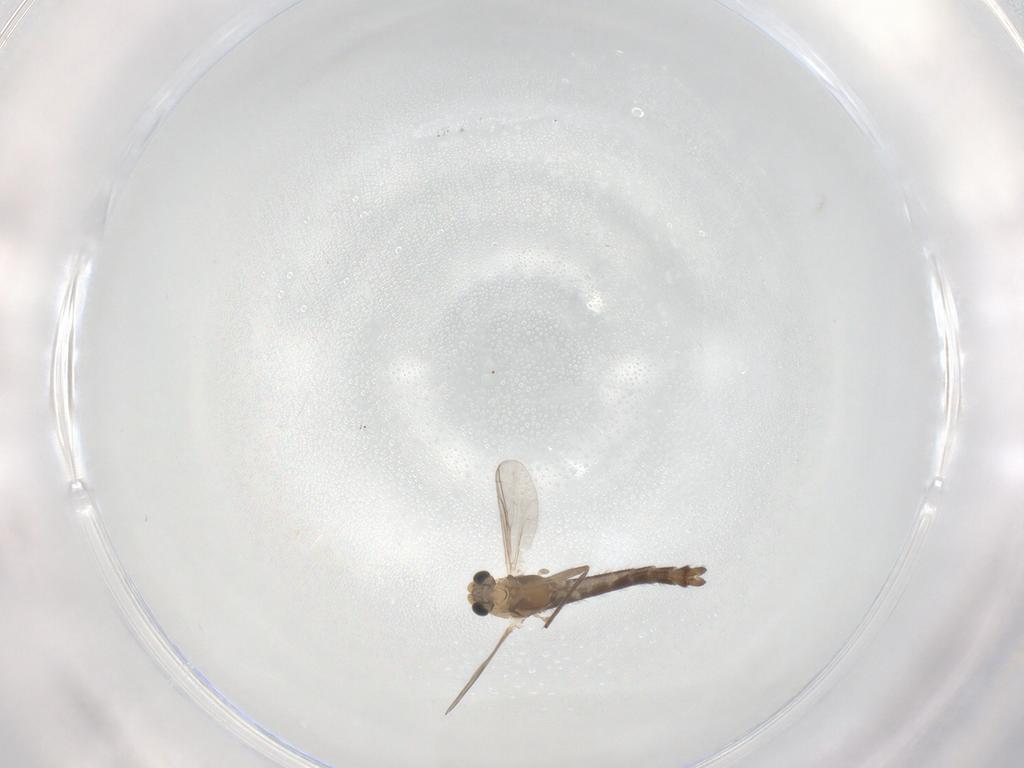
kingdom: Animalia
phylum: Arthropoda
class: Insecta
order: Diptera
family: Chironomidae
